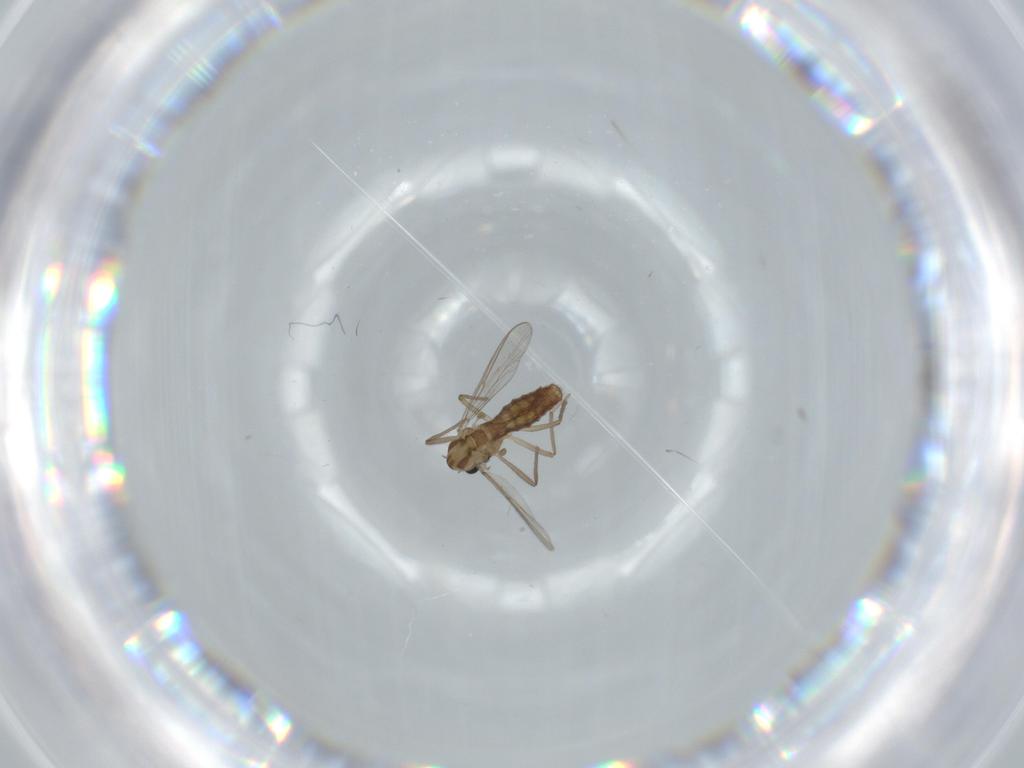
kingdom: Animalia
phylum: Arthropoda
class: Insecta
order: Diptera
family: Chironomidae
